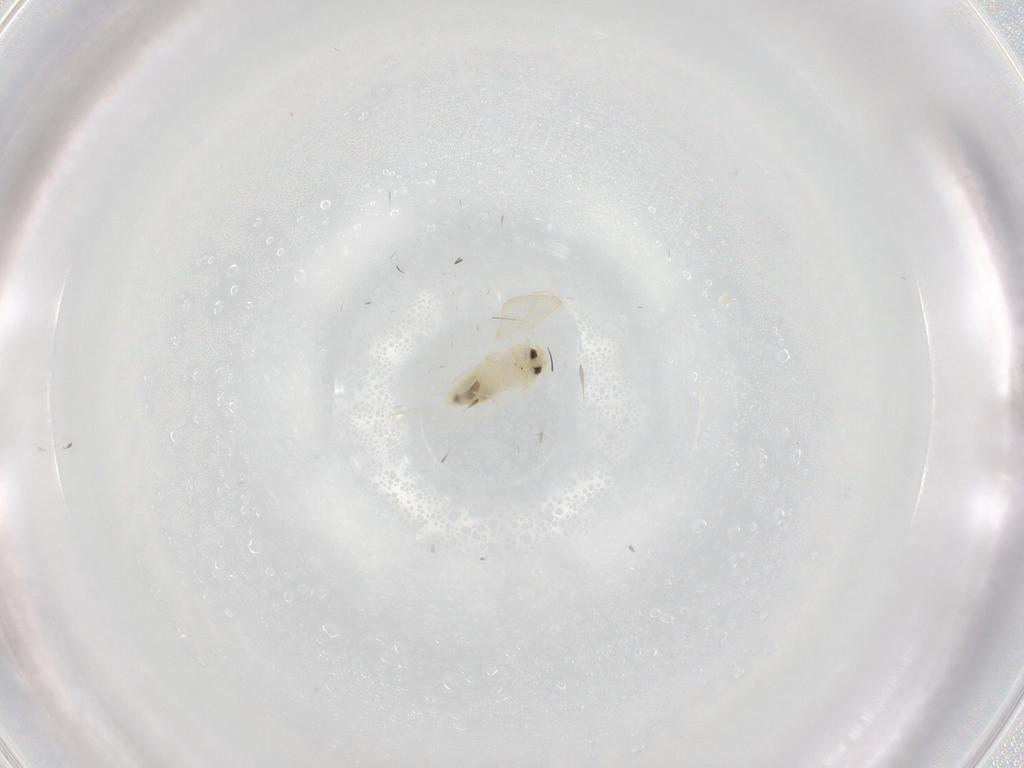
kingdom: Animalia
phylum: Arthropoda
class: Insecta
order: Hemiptera
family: Aleyrodidae
